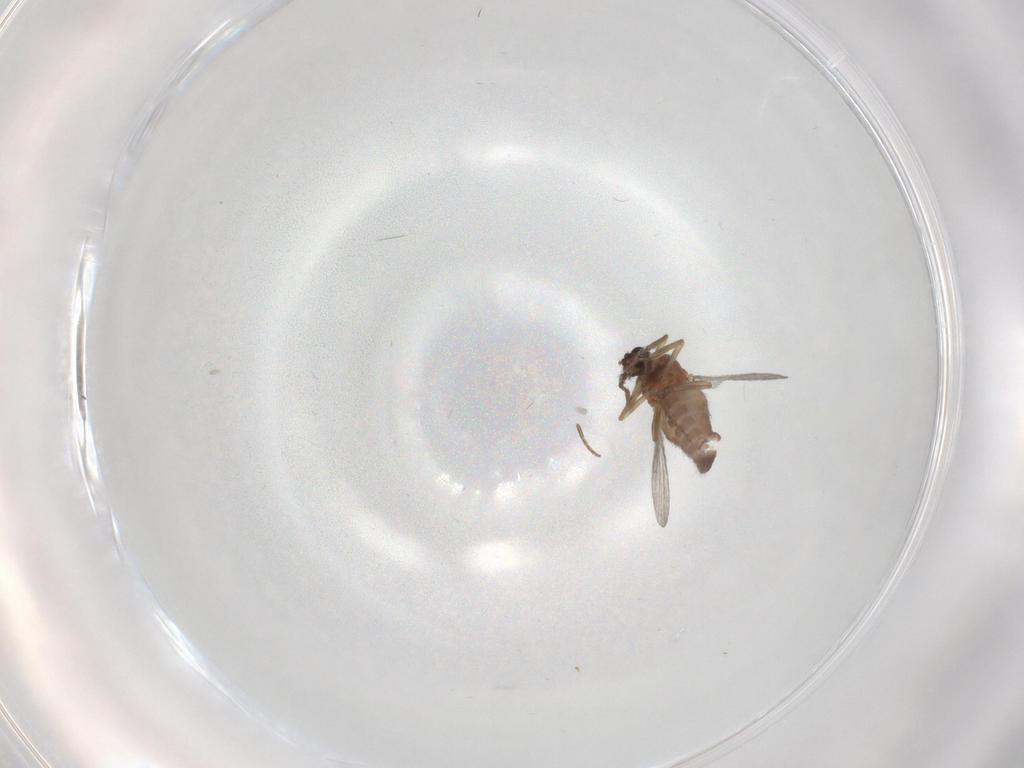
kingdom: Animalia
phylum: Arthropoda
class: Insecta
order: Diptera
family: Ceratopogonidae
